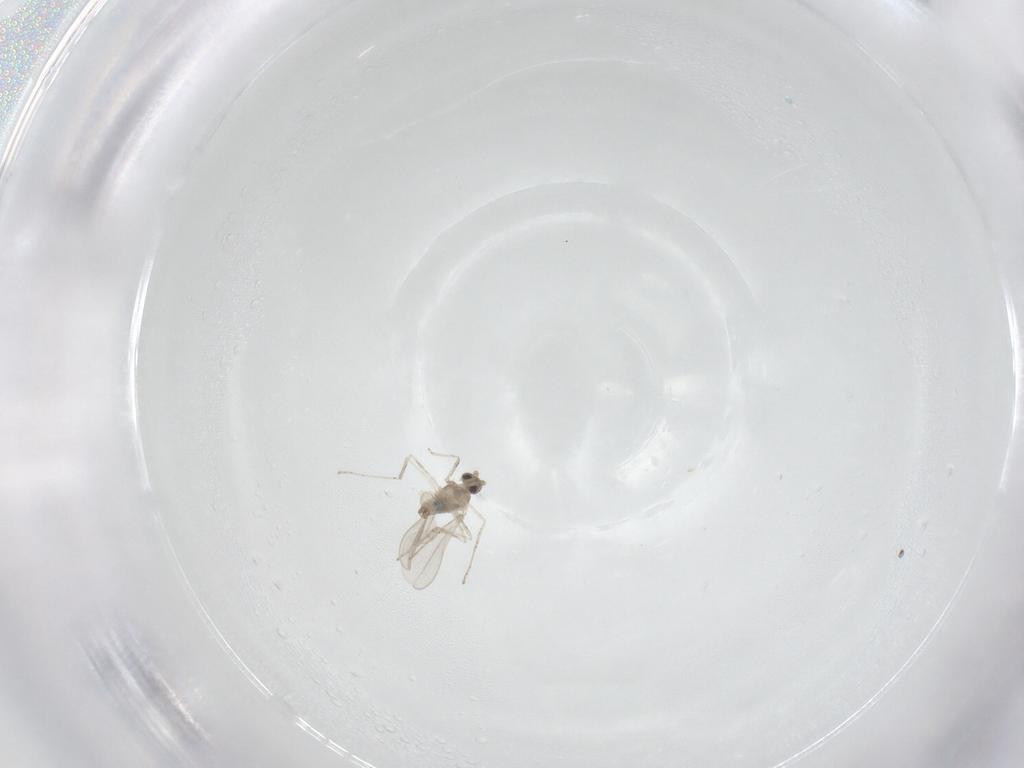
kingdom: Animalia
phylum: Arthropoda
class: Insecta
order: Diptera
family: Cecidomyiidae
